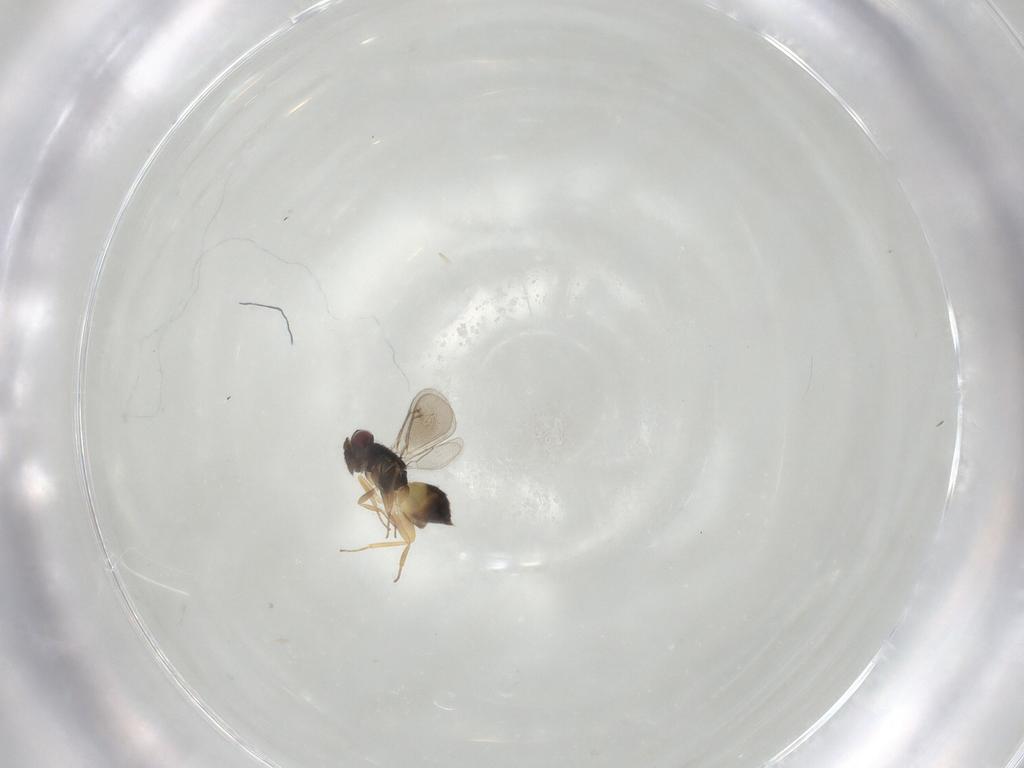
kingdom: Animalia
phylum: Arthropoda
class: Insecta
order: Hymenoptera
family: Eulophidae
